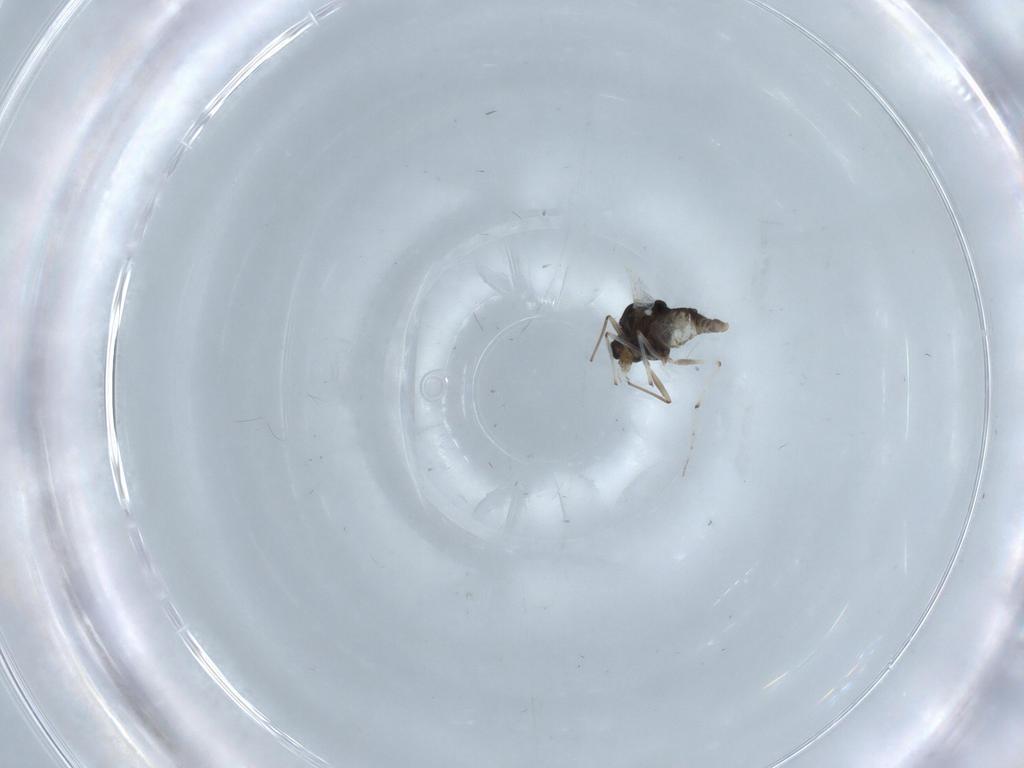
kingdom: Animalia
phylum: Arthropoda
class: Insecta
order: Diptera
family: Chironomidae
